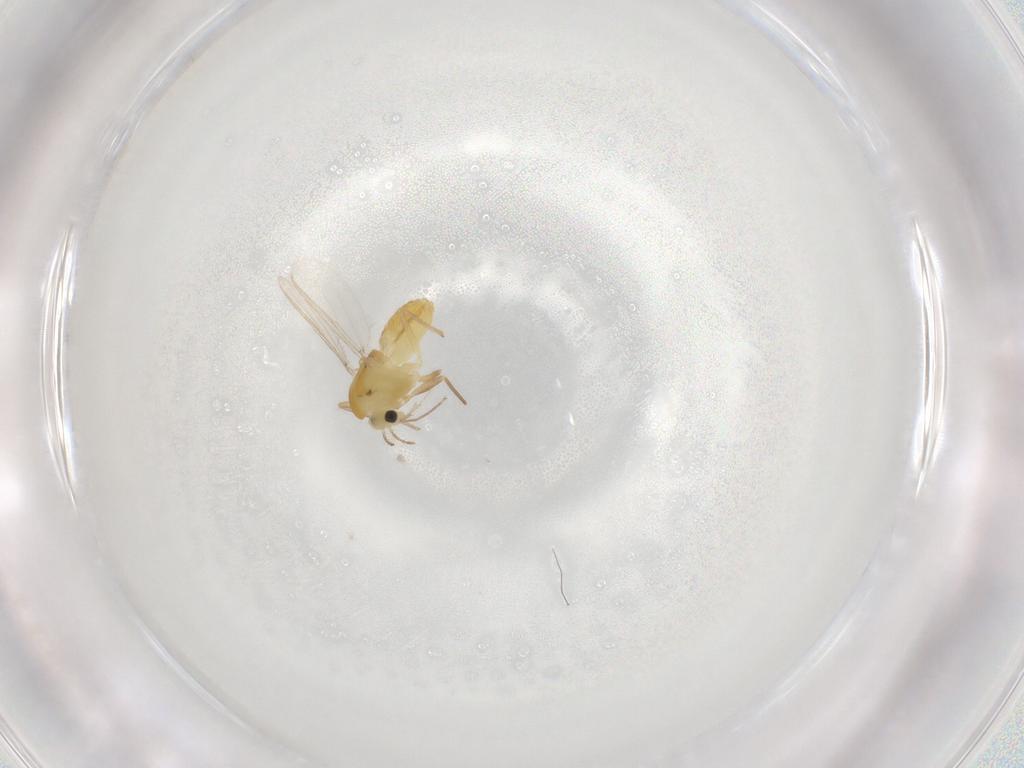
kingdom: Animalia
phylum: Arthropoda
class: Insecta
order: Diptera
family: Chironomidae
